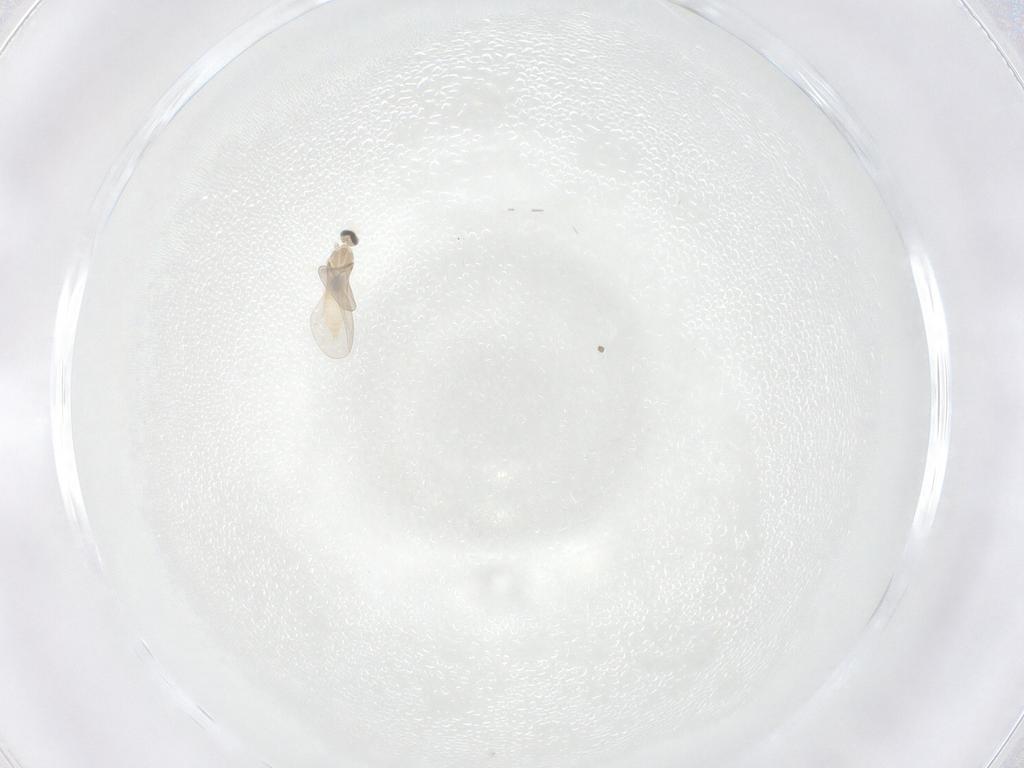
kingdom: Animalia
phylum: Arthropoda
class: Insecta
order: Diptera
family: Cecidomyiidae
